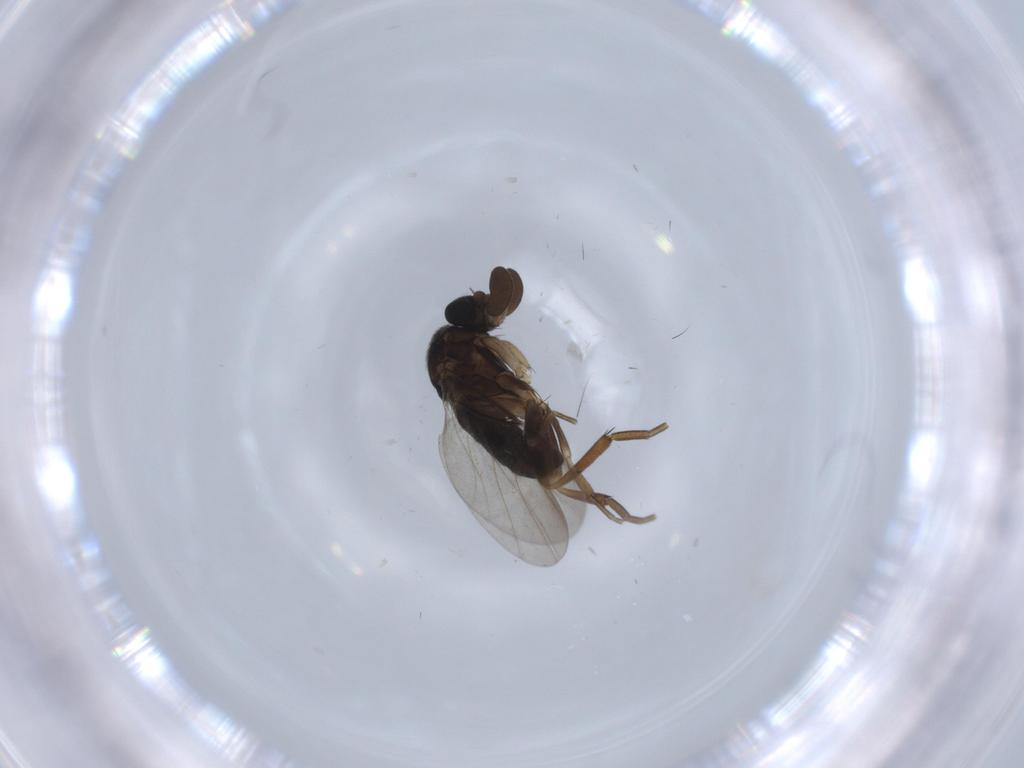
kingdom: Animalia
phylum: Arthropoda
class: Insecta
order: Diptera
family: Phoridae
